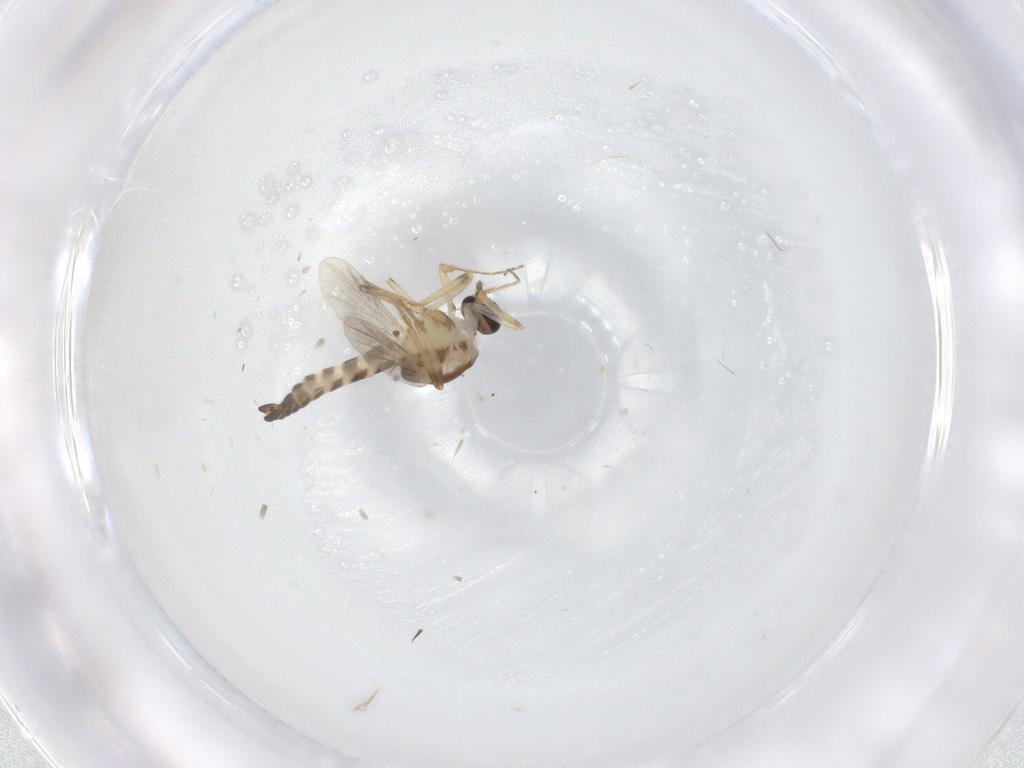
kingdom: Animalia
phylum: Arthropoda
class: Insecta
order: Diptera
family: Ceratopogonidae
